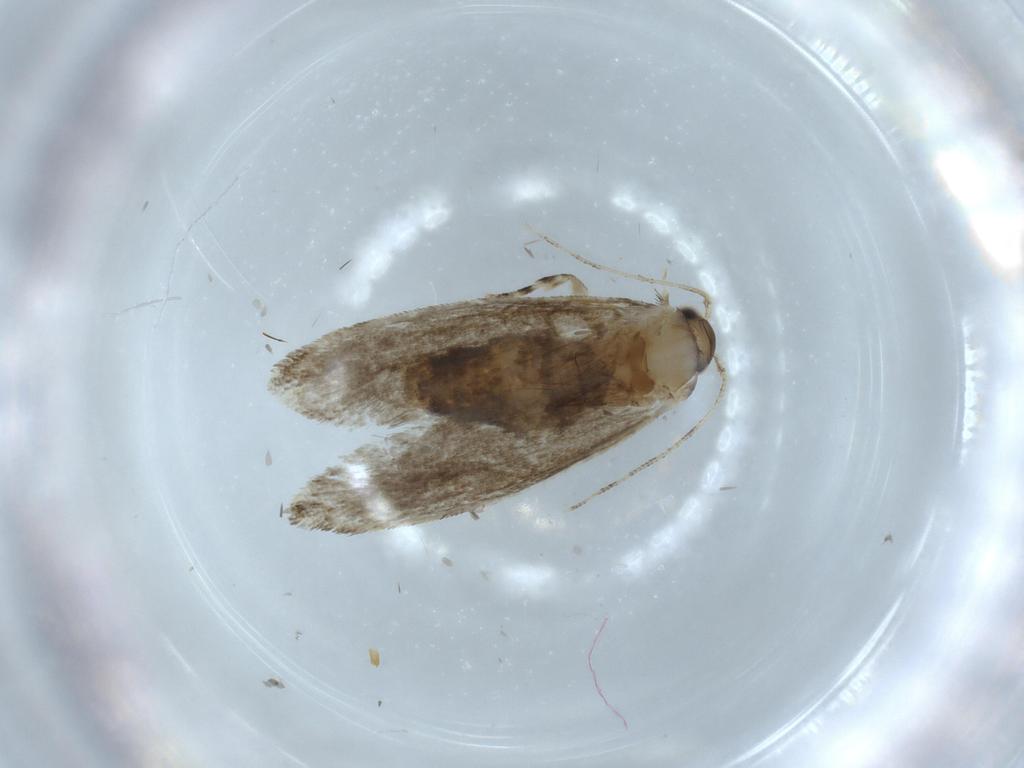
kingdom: Animalia
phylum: Arthropoda
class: Insecta
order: Lepidoptera
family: Tineidae
